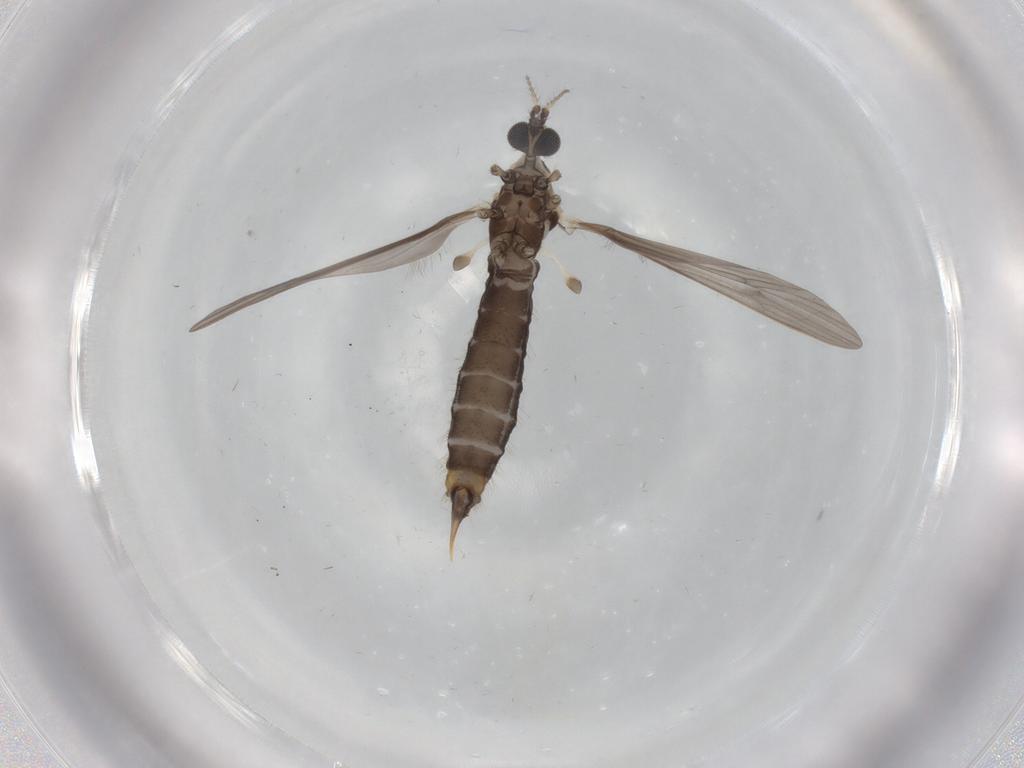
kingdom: Animalia
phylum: Arthropoda
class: Insecta
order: Diptera
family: Limoniidae
